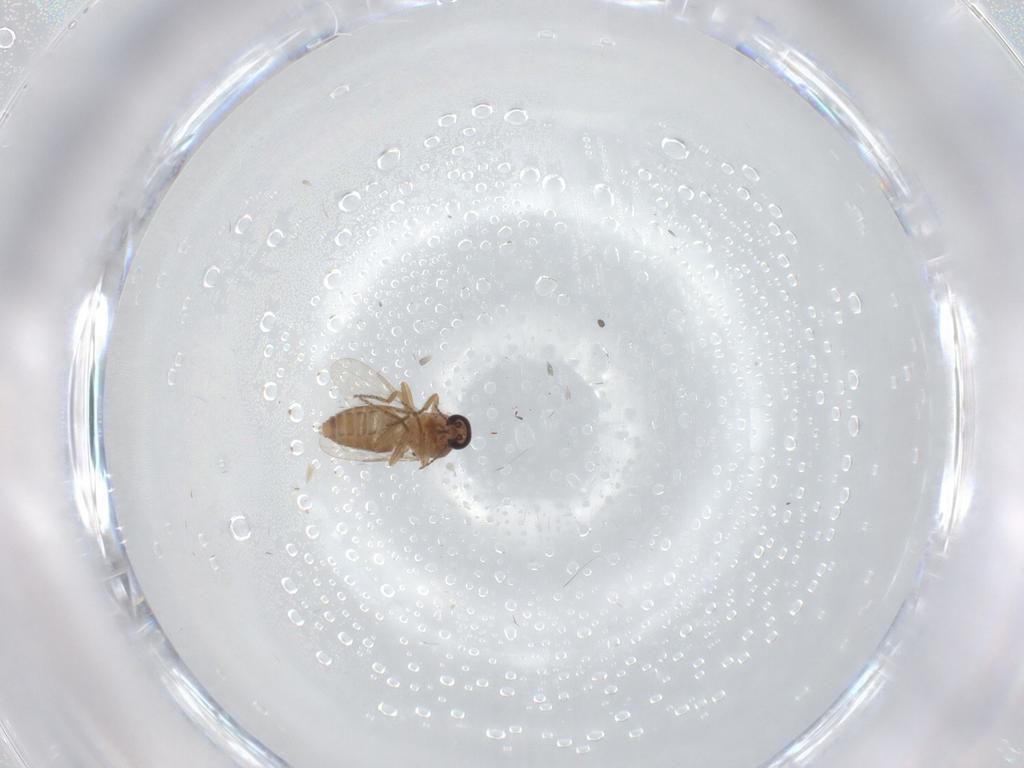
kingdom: Animalia
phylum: Arthropoda
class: Insecta
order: Diptera
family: Ceratopogonidae
